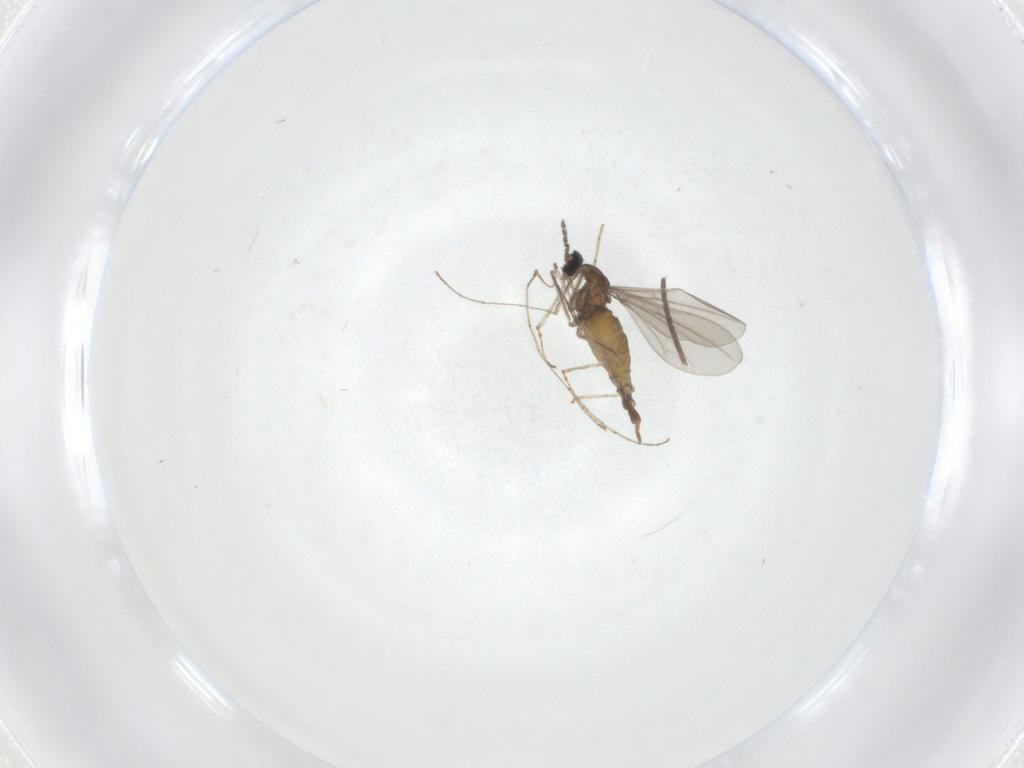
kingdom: Animalia
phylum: Arthropoda
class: Insecta
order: Diptera
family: Cecidomyiidae
